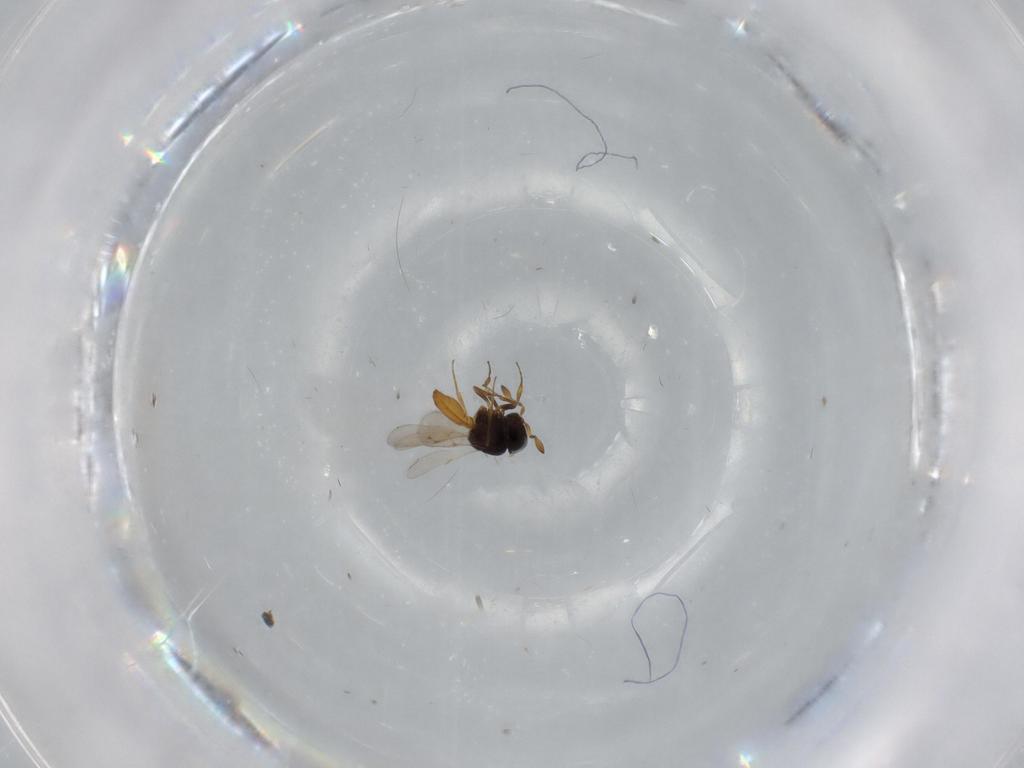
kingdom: Animalia
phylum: Arthropoda
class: Insecta
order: Hymenoptera
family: Scelionidae
